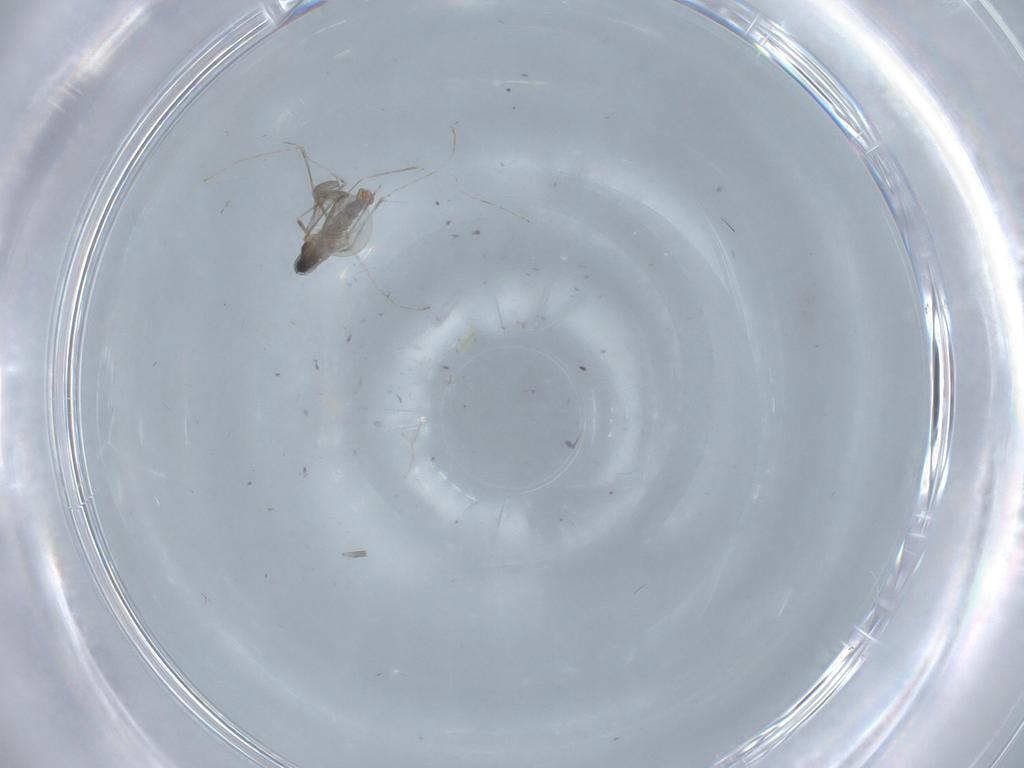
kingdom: Animalia
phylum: Arthropoda
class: Insecta
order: Diptera
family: Cecidomyiidae
